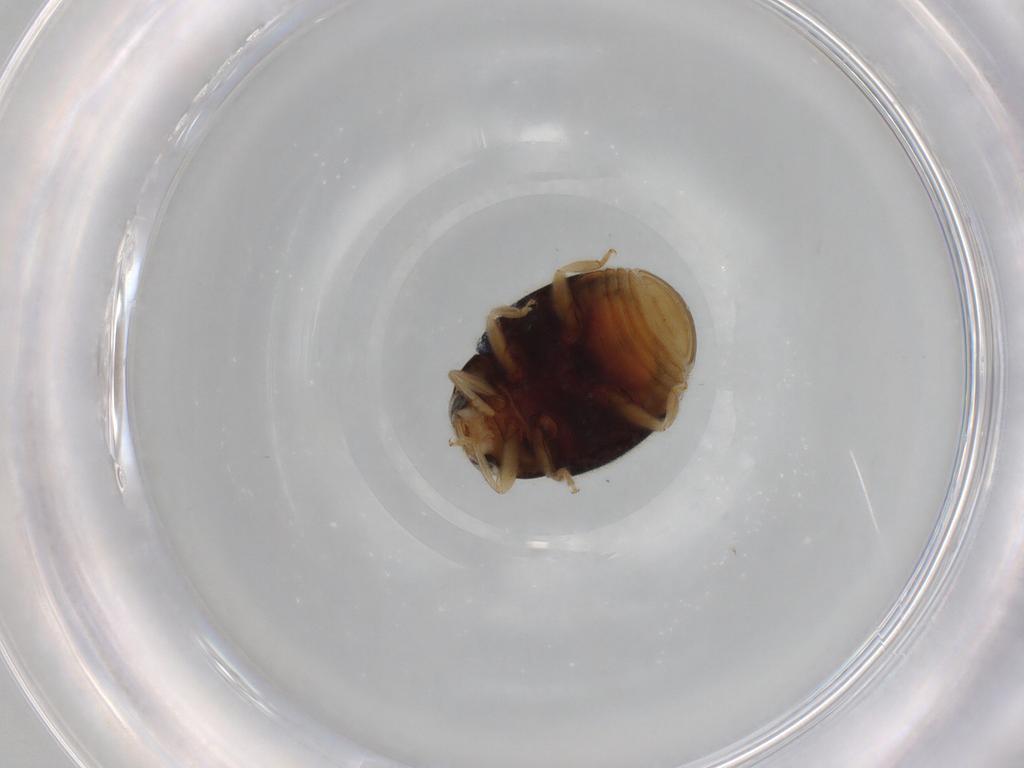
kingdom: Animalia
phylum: Arthropoda
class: Insecta
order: Coleoptera
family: Coccinellidae
